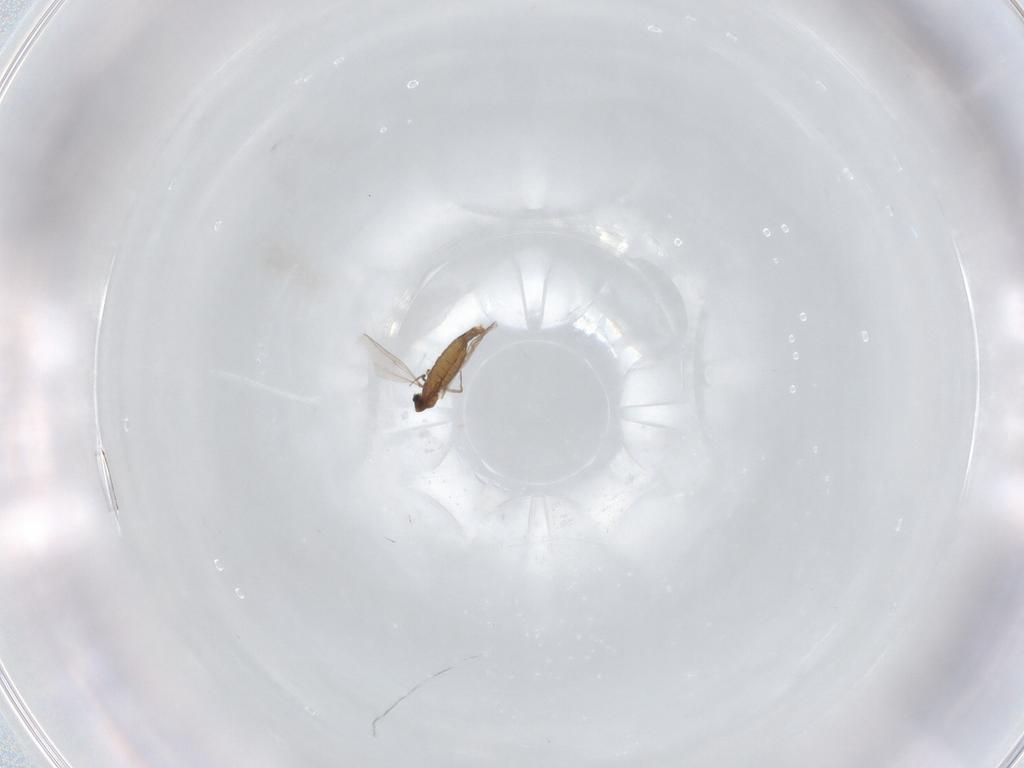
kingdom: Animalia
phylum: Arthropoda
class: Insecta
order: Diptera
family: Chironomidae
